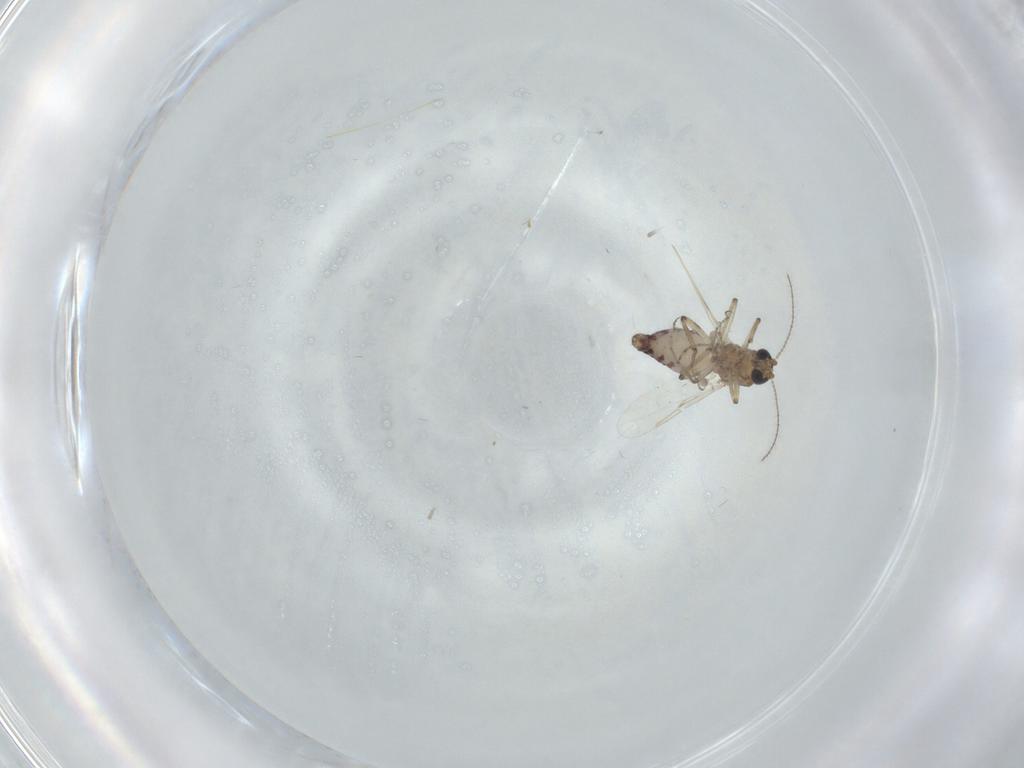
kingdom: Animalia
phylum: Arthropoda
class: Insecta
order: Diptera
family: Ceratopogonidae
